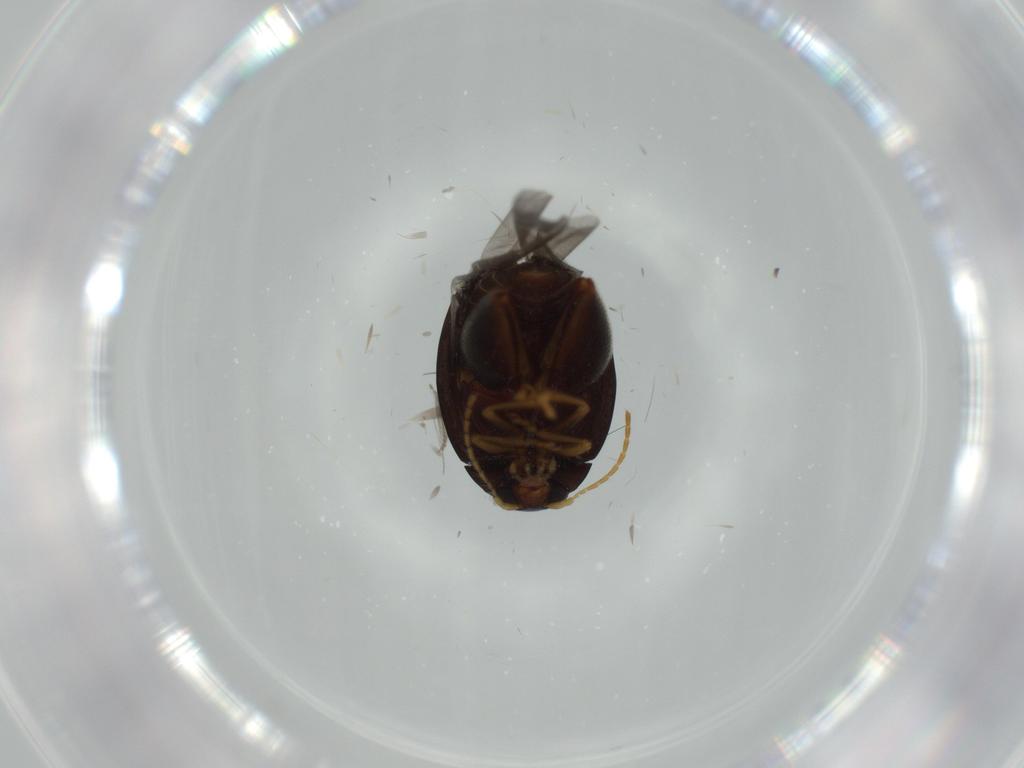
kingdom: Animalia
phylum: Arthropoda
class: Insecta
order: Coleoptera
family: Chrysomelidae
